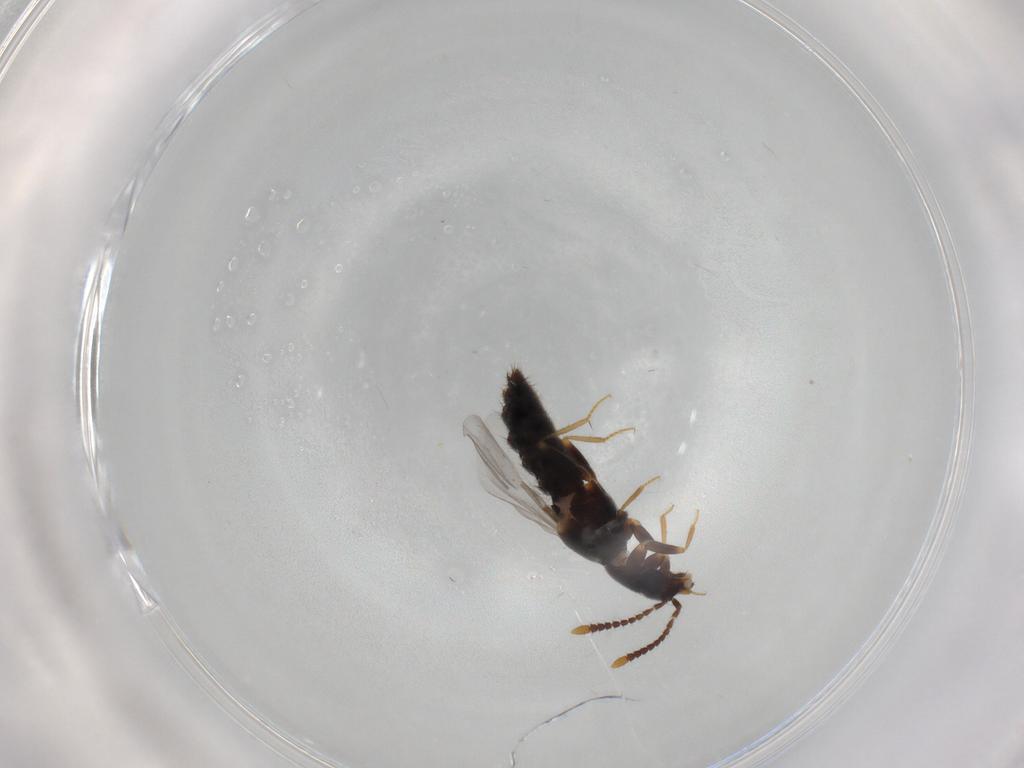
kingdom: Animalia
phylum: Arthropoda
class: Insecta
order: Coleoptera
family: Staphylinidae
